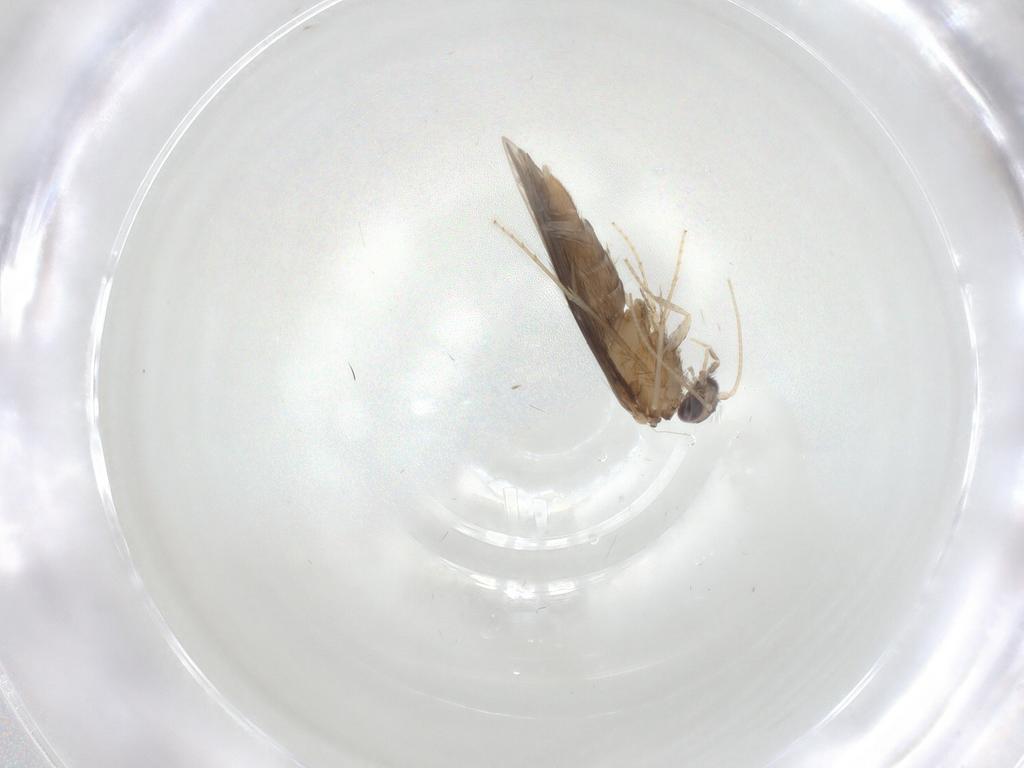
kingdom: Animalia
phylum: Arthropoda
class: Insecta
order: Trichoptera
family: Hydroptilidae
